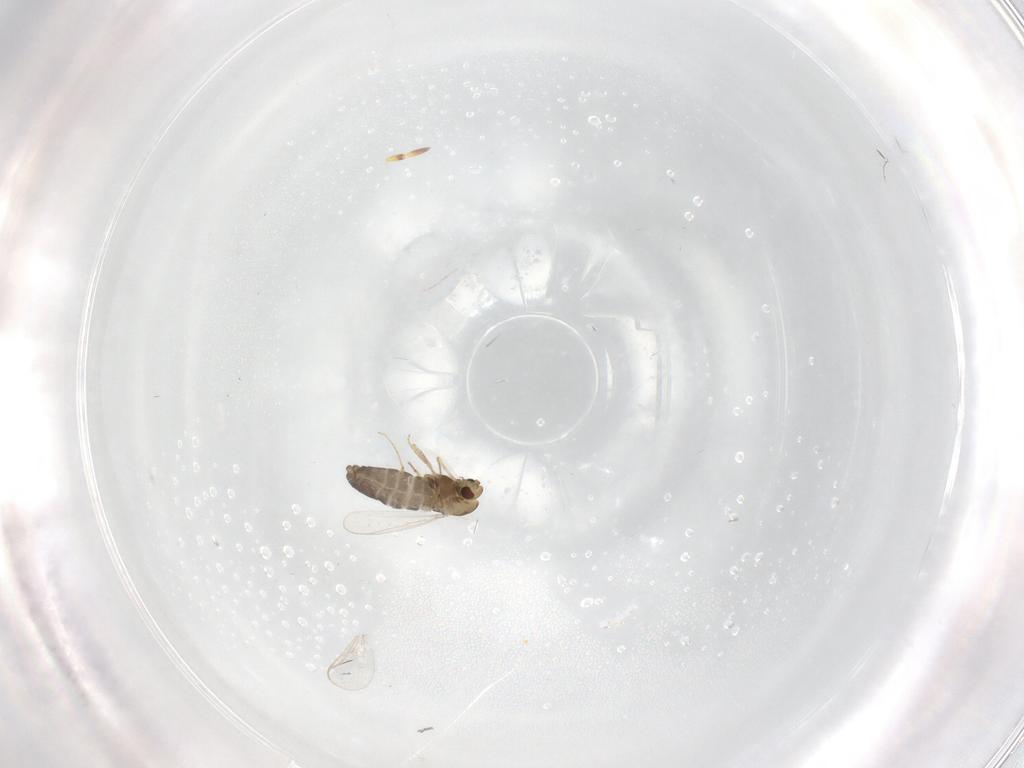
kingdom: Animalia
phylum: Arthropoda
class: Insecta
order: Diptera
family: Chironomidae
